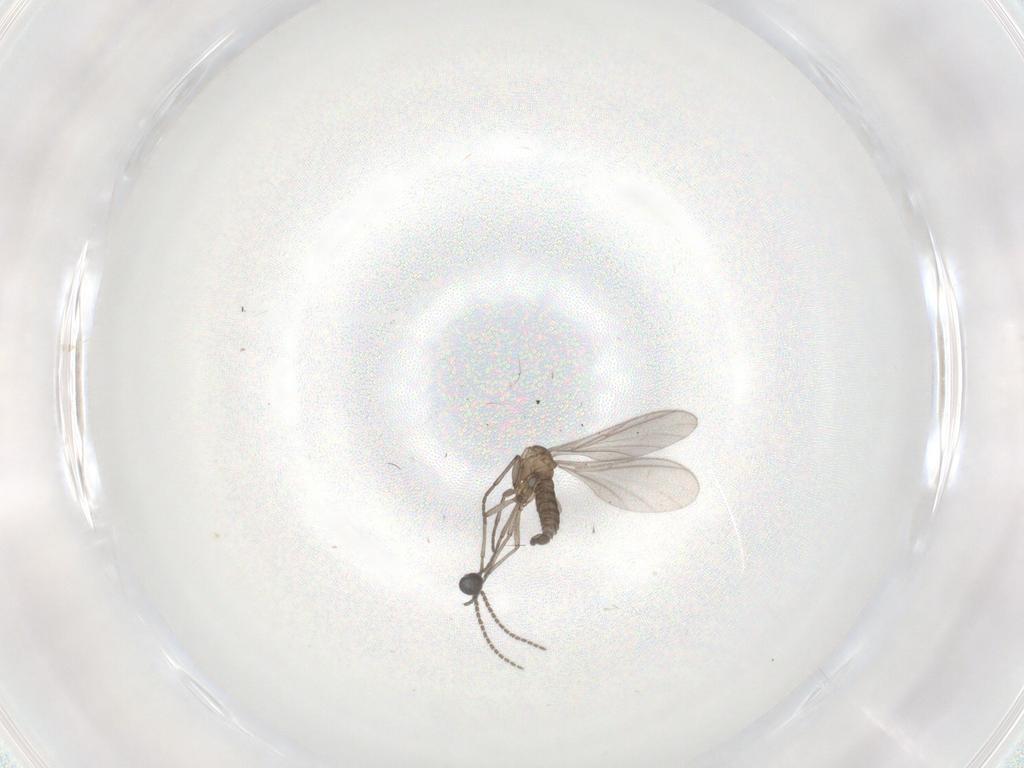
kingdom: Animalia
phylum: Arthropoda
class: Insecta
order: Diptera
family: Sciaridae
